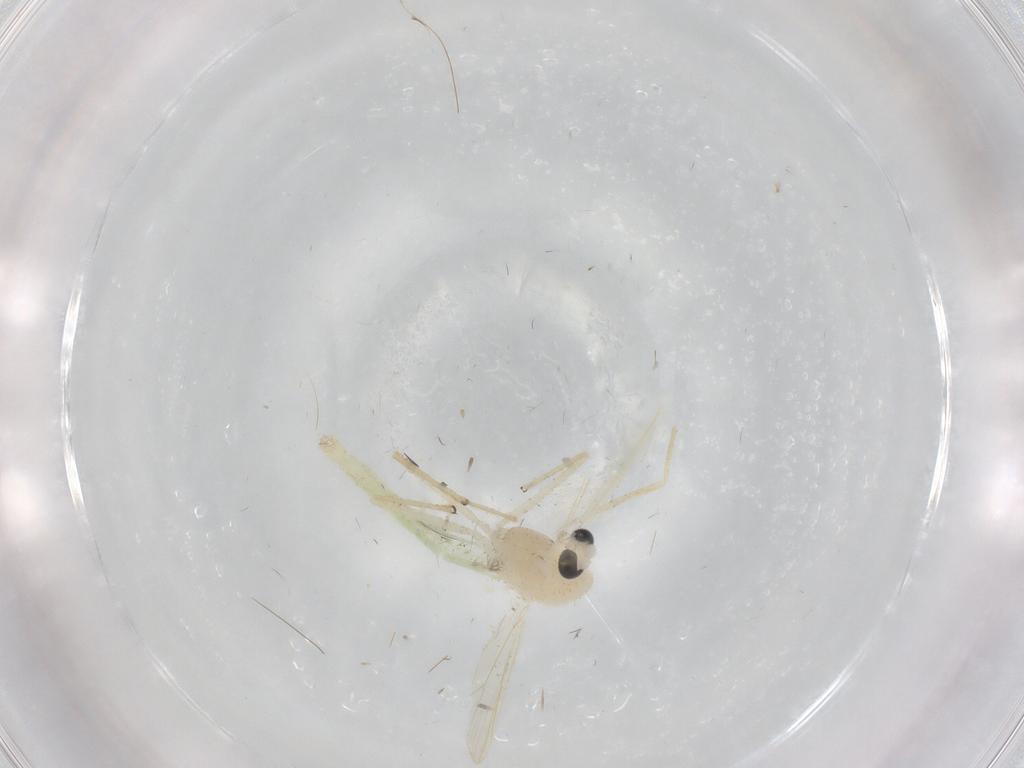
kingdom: Animalia
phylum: Arthropoda
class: Insecta
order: Diptera
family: Chironomidae
